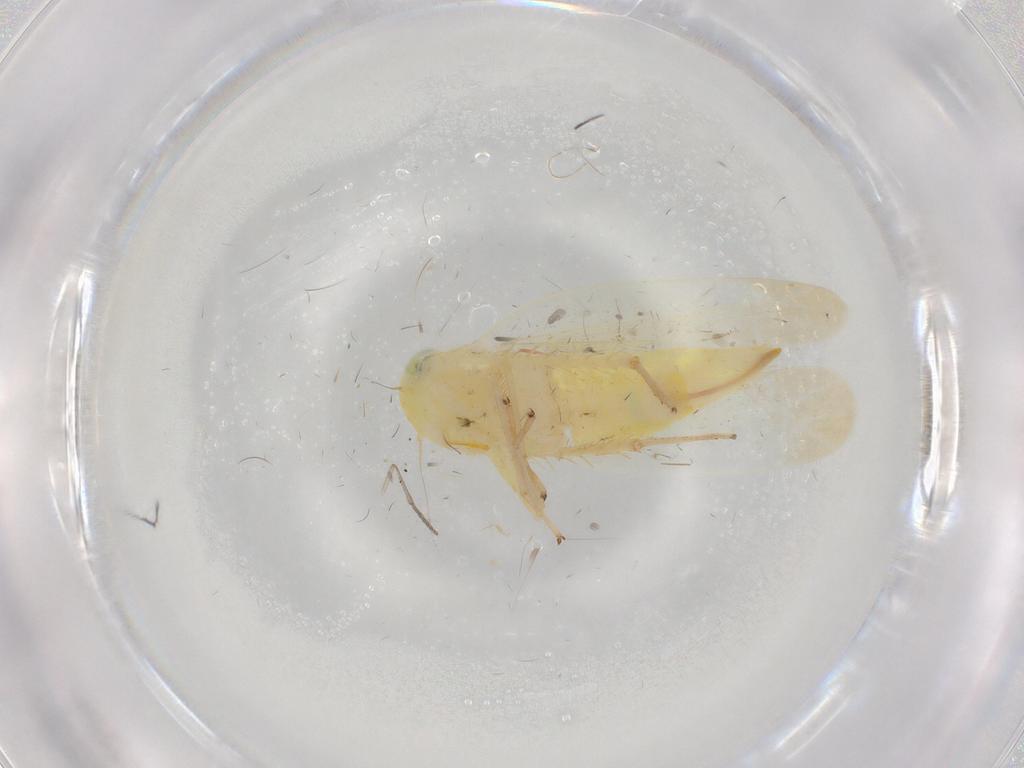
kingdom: Animalia
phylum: Arthropoda
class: Insecta
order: Hemiptera
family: Cicadellidae
